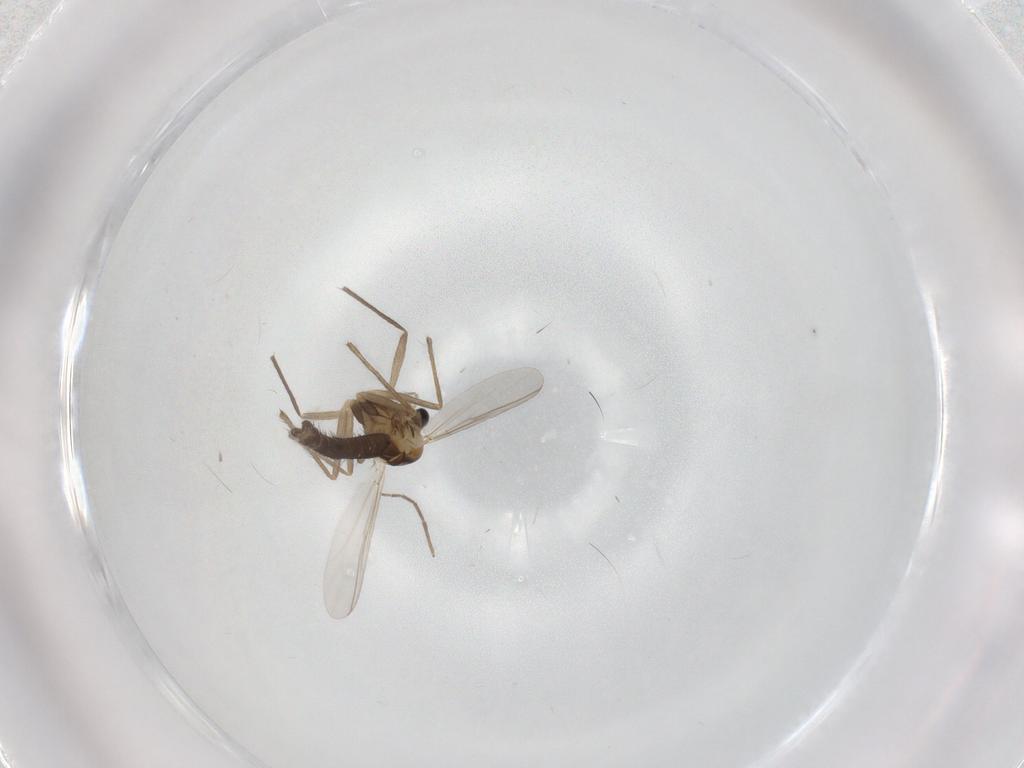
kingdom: Animalia
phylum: Arthropoda
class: Insecta
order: Diptera
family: Chironomidae
